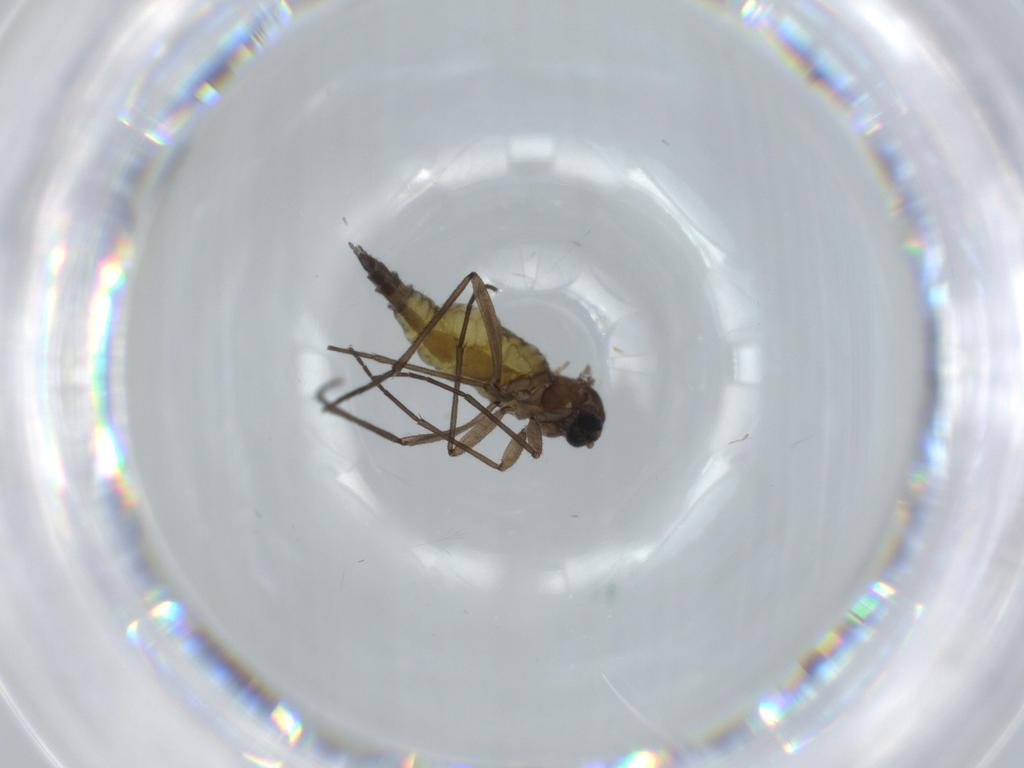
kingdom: Animalia
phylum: Arthropoda
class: Insecta
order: Diptera
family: Sciaridae
